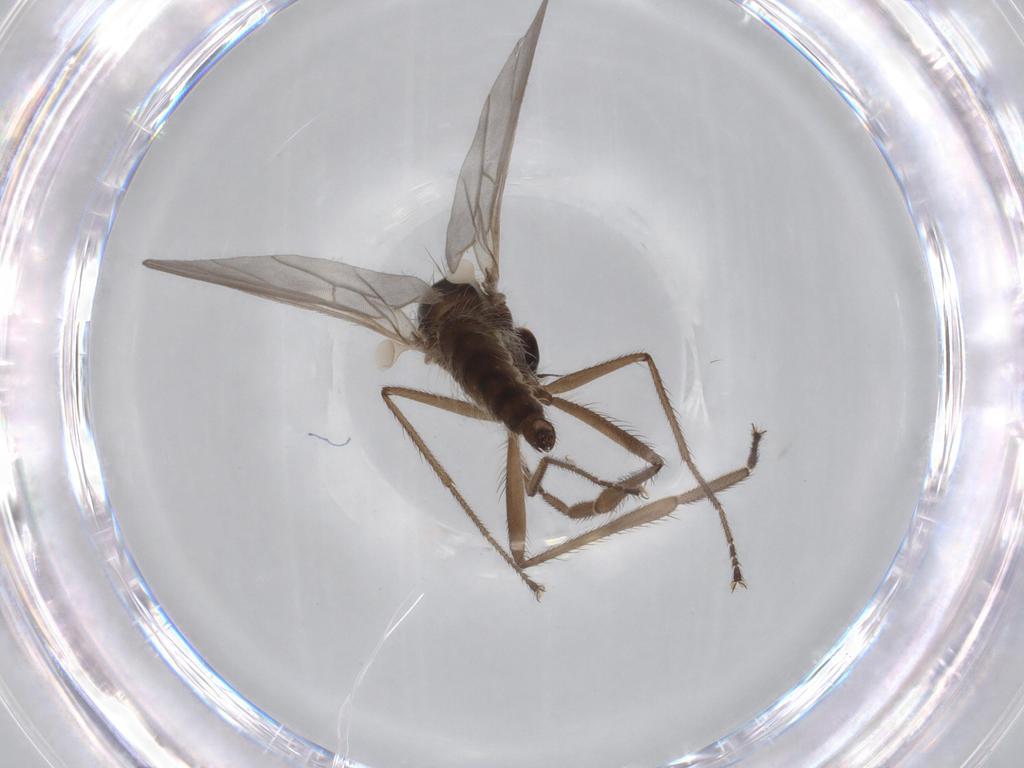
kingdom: Animalia
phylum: Arthropoda
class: Insecta
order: Diptera
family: Hybotidae
